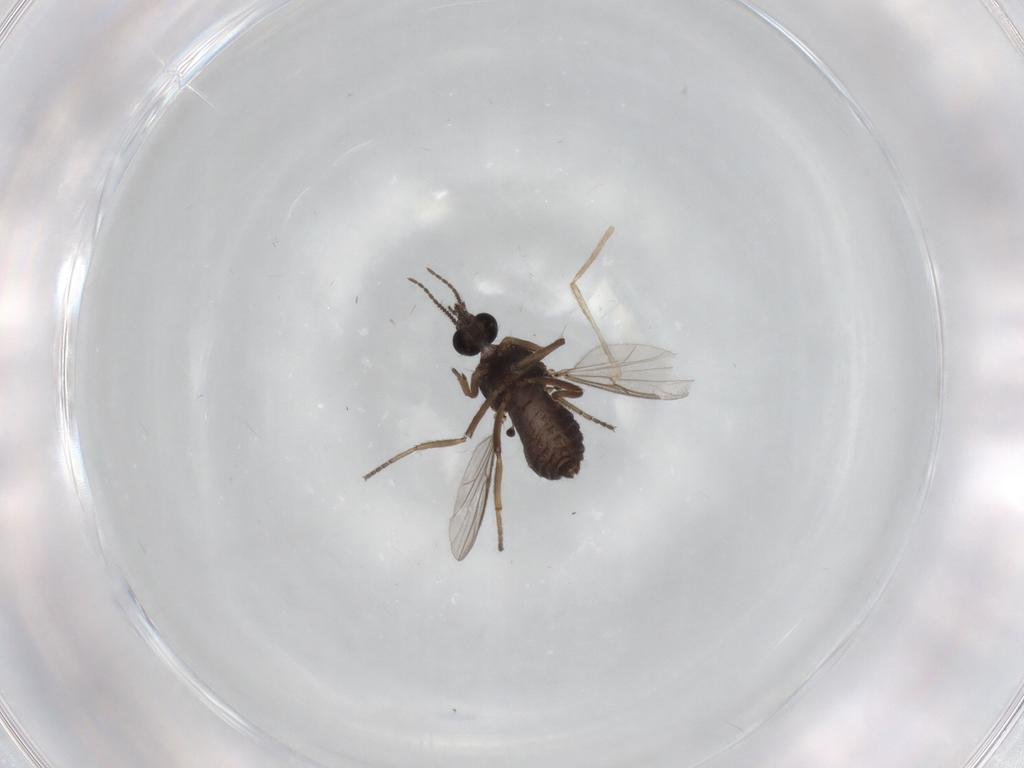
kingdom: Animalia
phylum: Arthropoda
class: Insecta
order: Diptera
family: Ceratopogonidae
